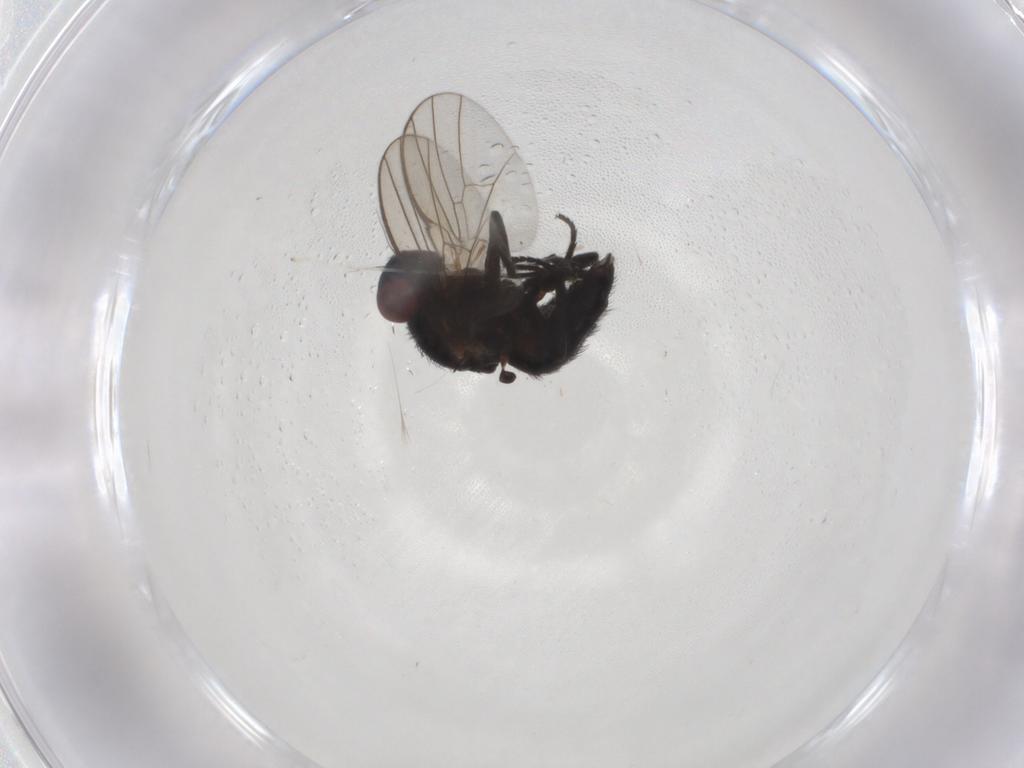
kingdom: Animalia
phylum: Arthropoda
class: Insecta
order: Diptera
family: Agromyzidae
